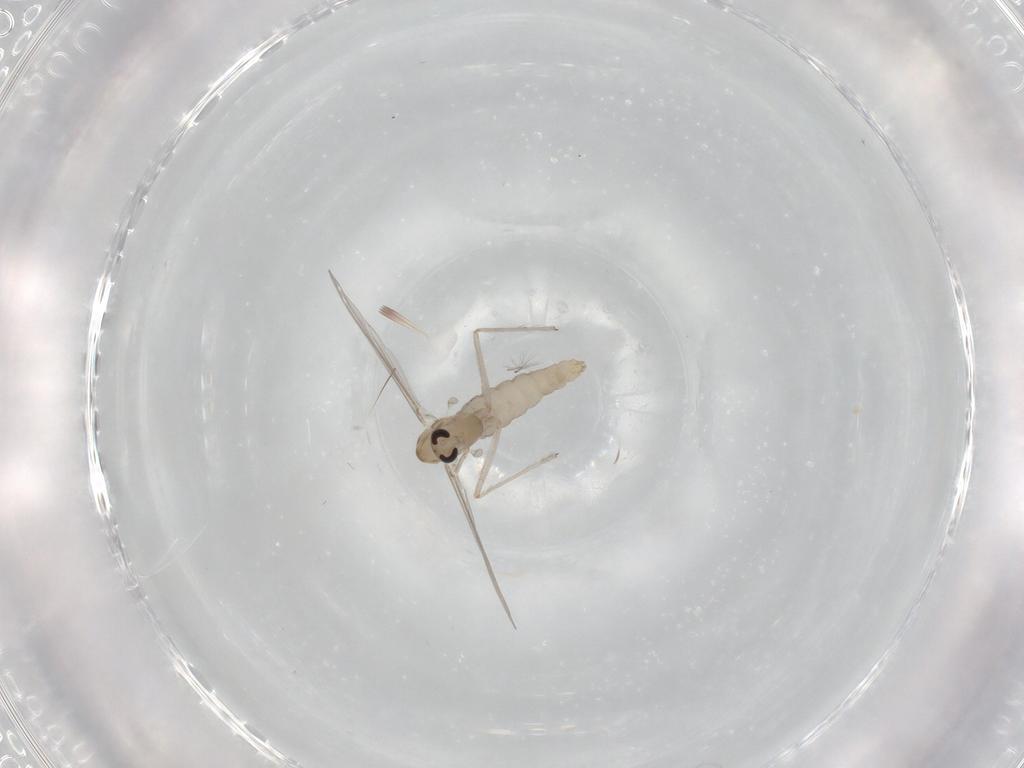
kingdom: Animalia
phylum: Arthropoda
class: Insecta
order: Diptera
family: Chironomidae
